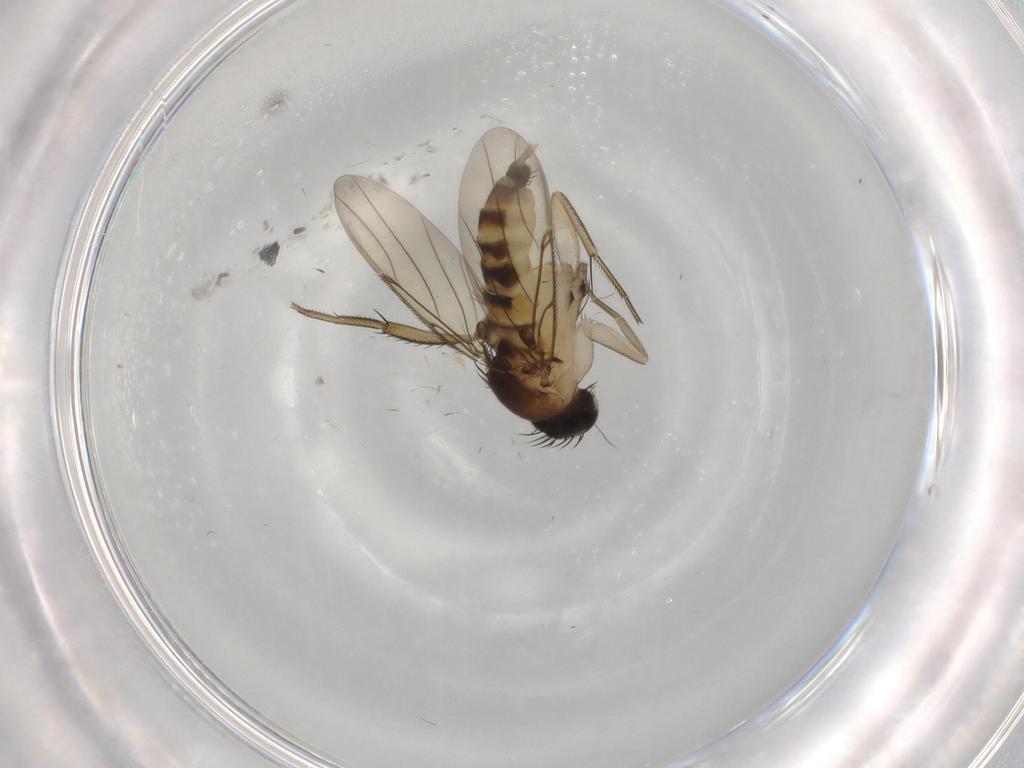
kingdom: Animalia
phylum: Arthropoda
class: Insecta
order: Diptera
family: Phoridae
